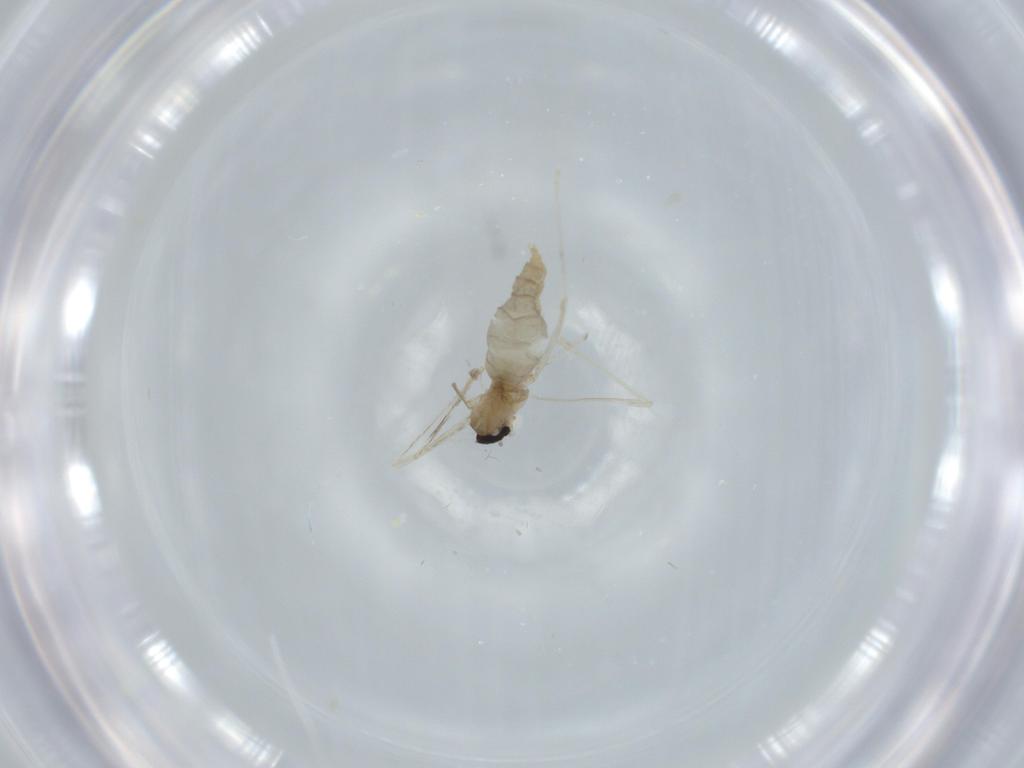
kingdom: Animalia
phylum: Arthropoda
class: Insecta
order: Diptera
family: Cecidomyiidae
